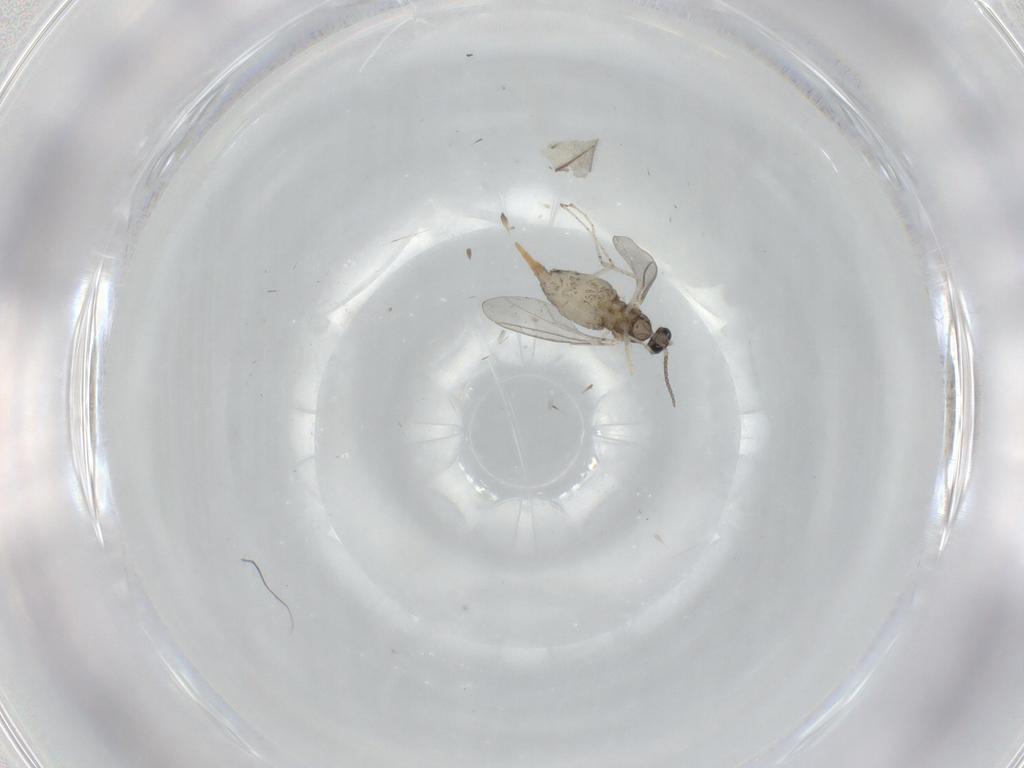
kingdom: Animalia
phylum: Arthropoda
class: Insecta
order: Diptera
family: Cecidomyiidae
